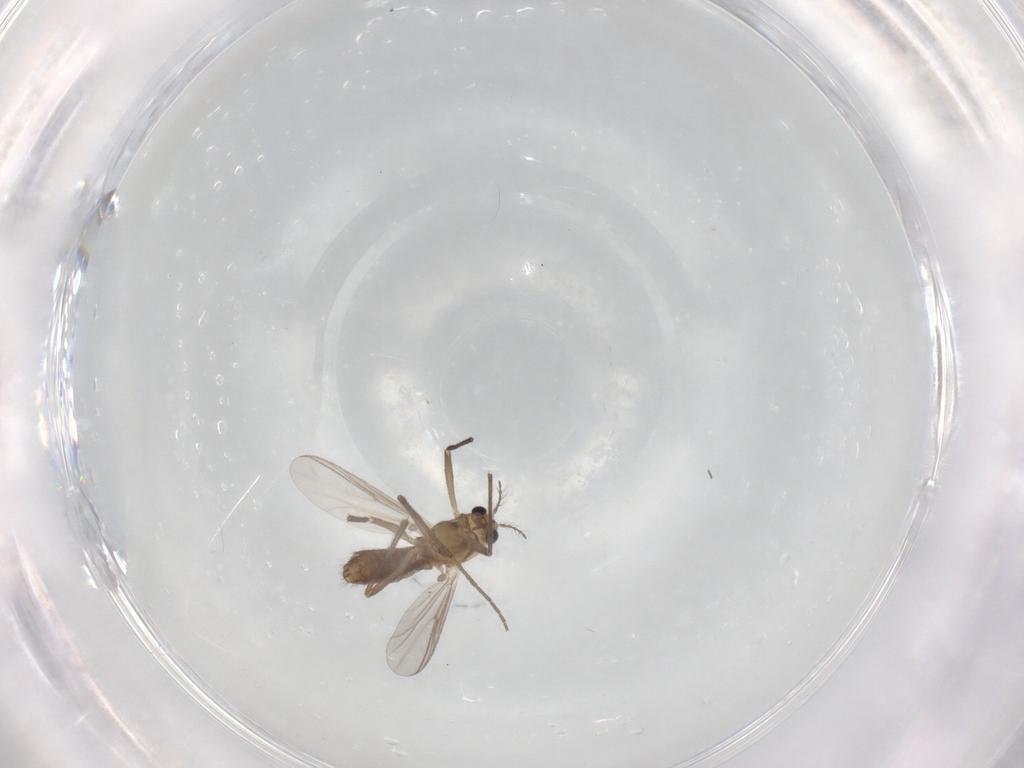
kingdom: Animalia
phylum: Arthropoda
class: Insecta
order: Diptera
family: Chironomidae
